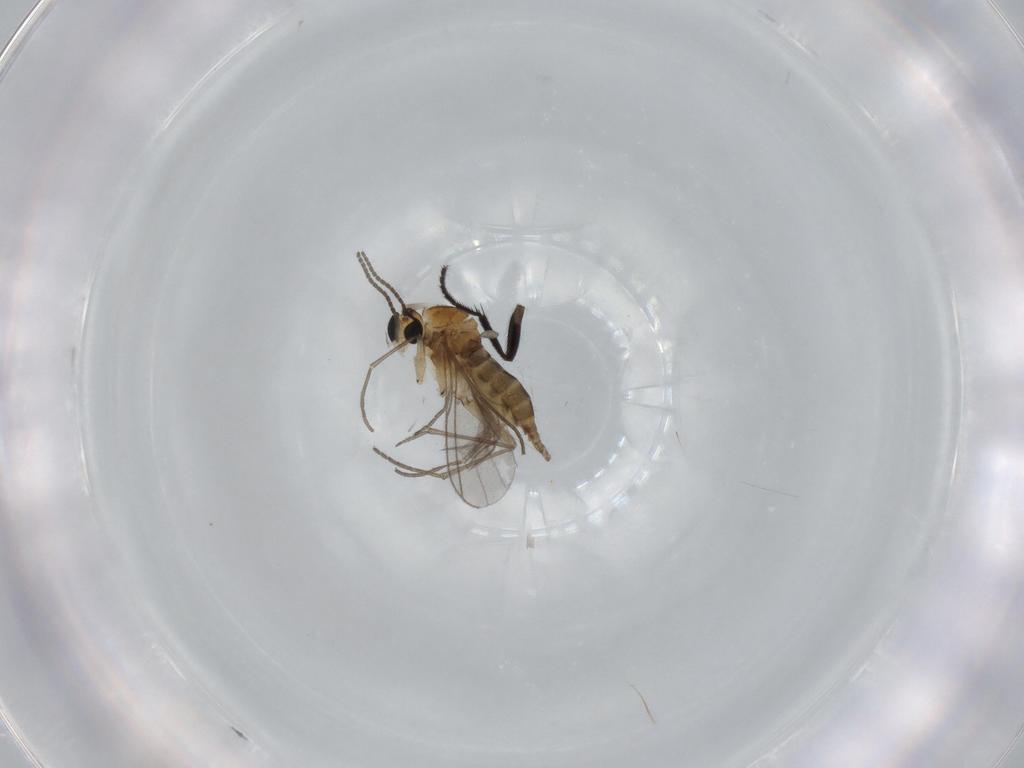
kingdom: Animalia
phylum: Arthropoda
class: Insecta
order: Diptera
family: Milichiidae
